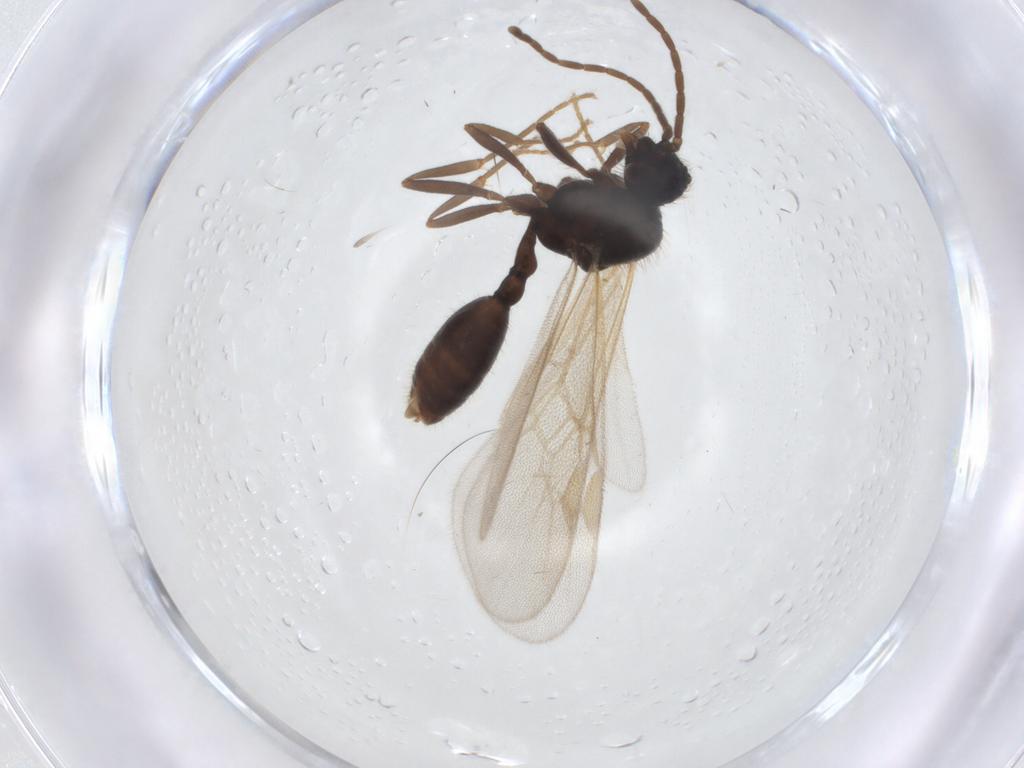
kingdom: Animalia
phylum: Arthropoda
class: Insecta
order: Hymenoptera
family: Formicidae
